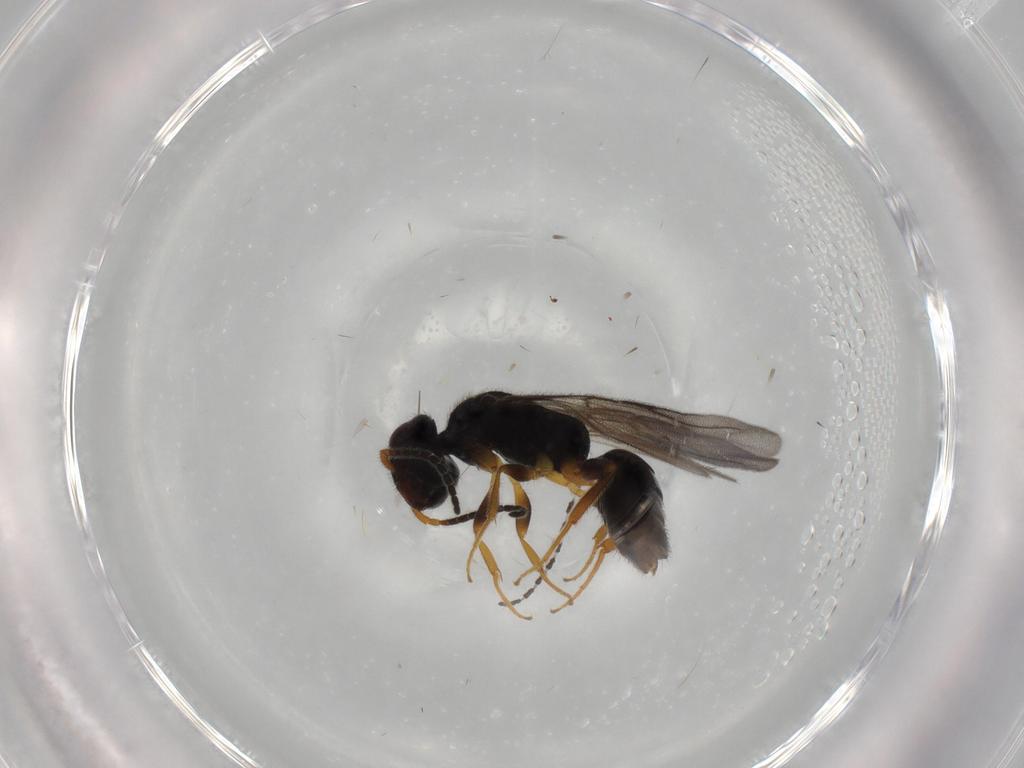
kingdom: Animalia
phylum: Arthropoda
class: Insecta
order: Hymenoptera
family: Bethylidae
